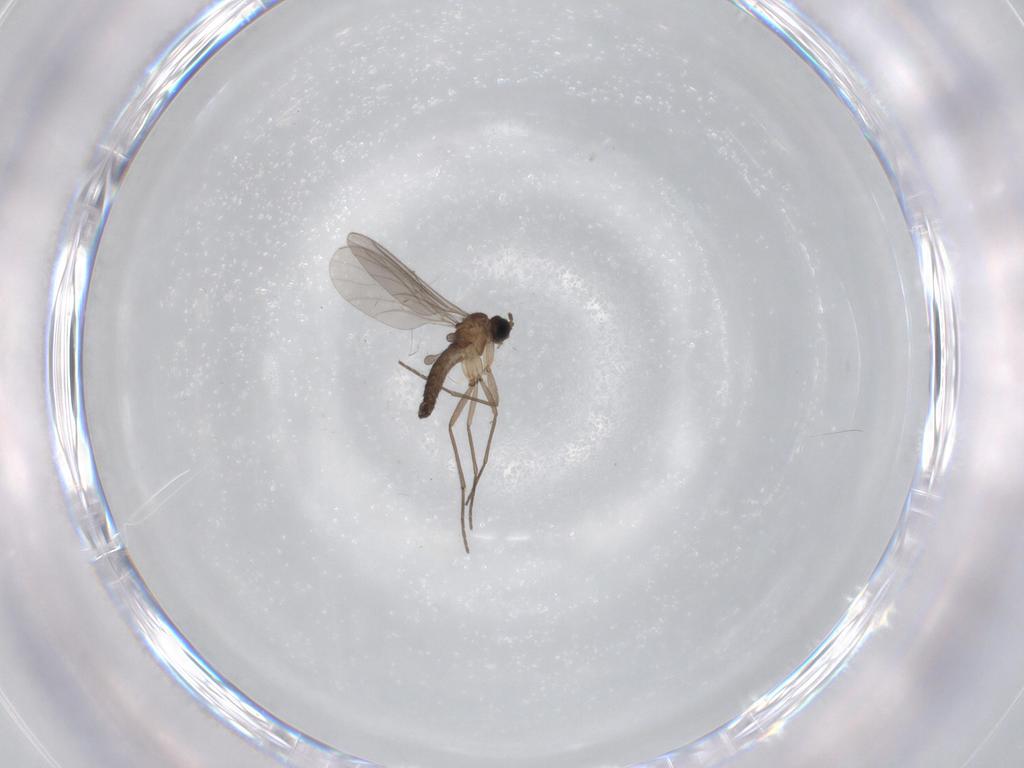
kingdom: Animalia
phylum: Arthropoda
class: Insecta
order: Diptera
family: Sciaridae
